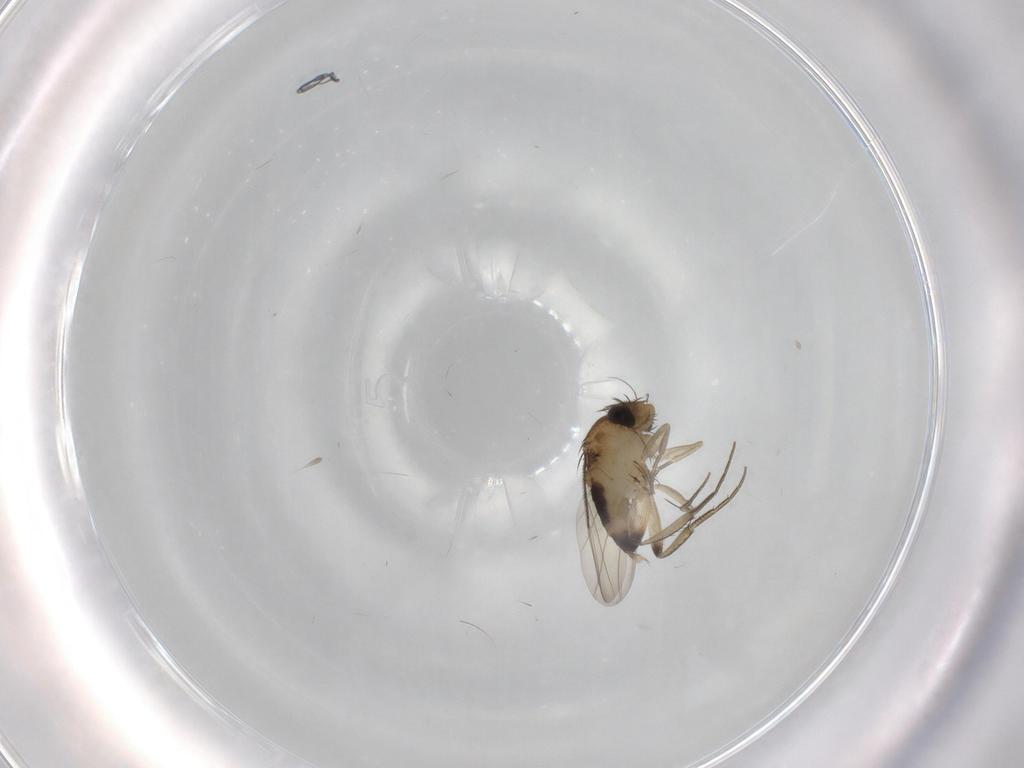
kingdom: Animalia
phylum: Arthropoda
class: Insecta
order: Diptera
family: Phoridae
